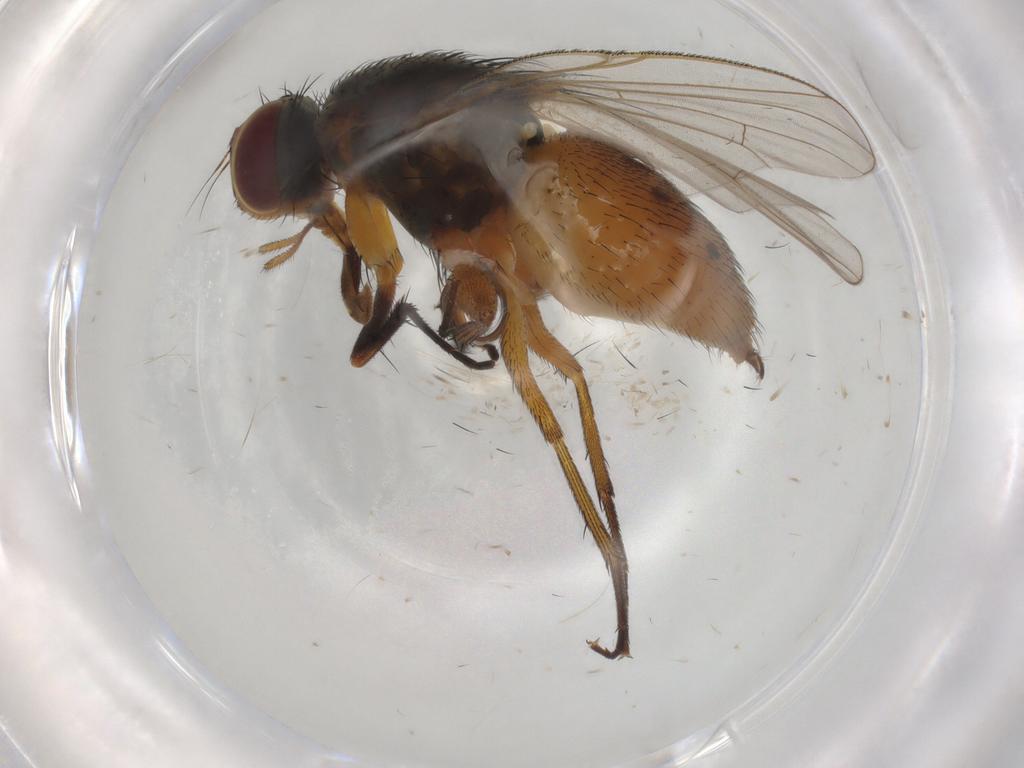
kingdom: Animalia
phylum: Arthropoda
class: Insecta
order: Diptera
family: Muscidae
